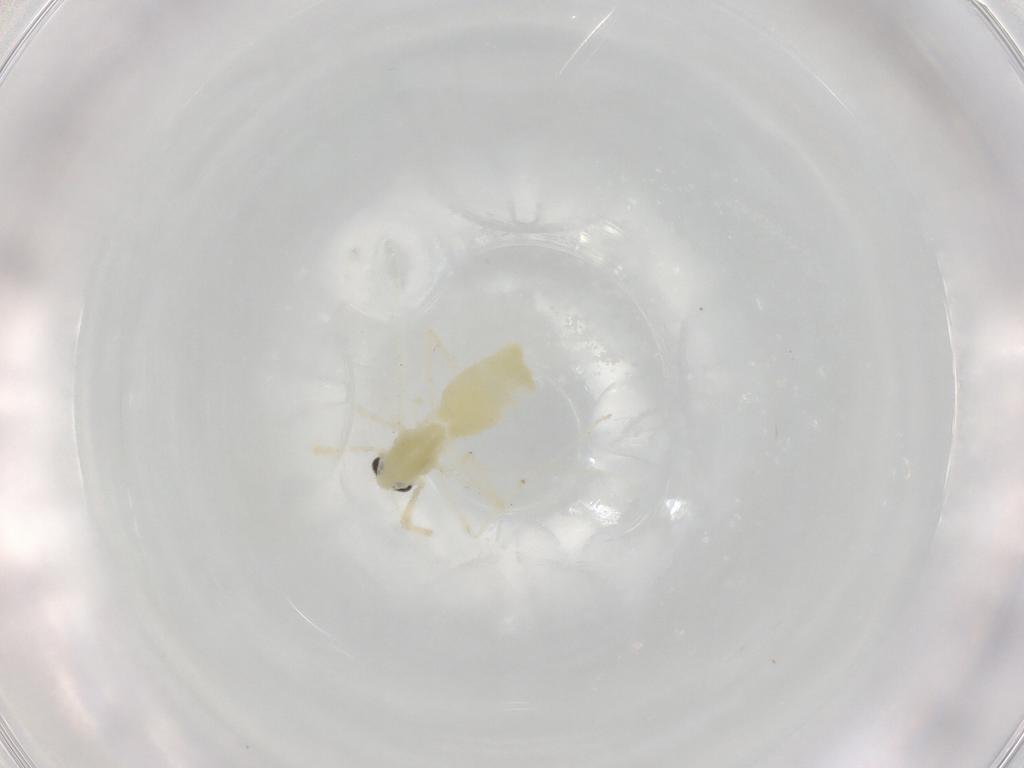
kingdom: Animalia
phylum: Arthropoda
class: Insecta
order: Diptera
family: Chironomidae
